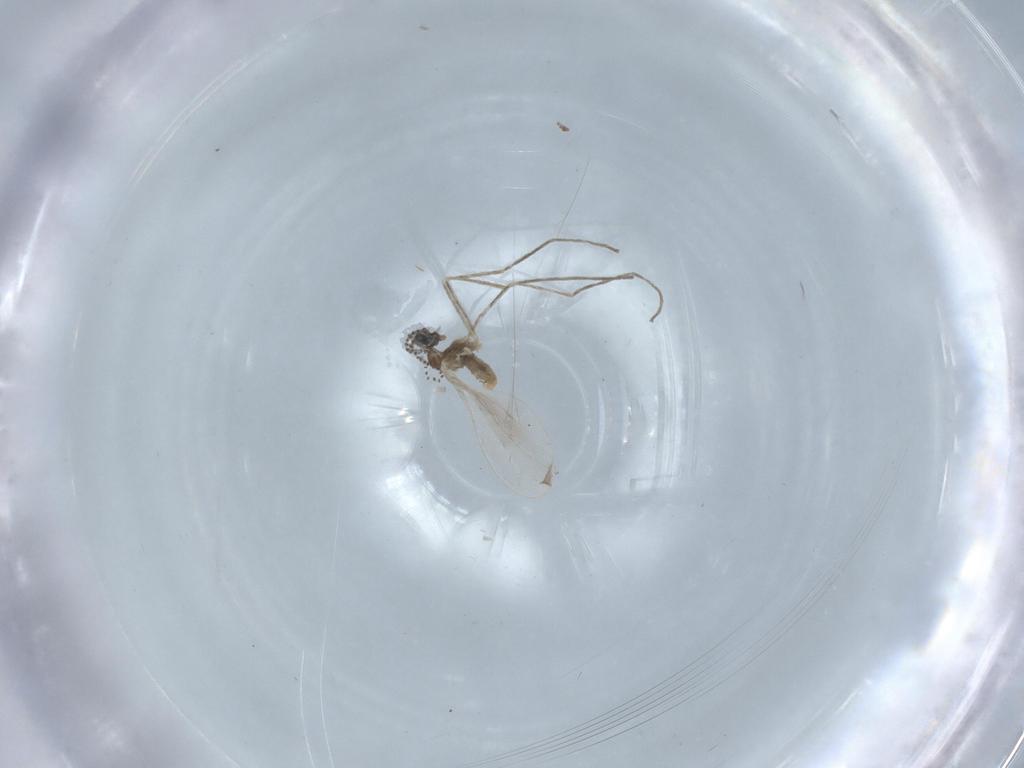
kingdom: Animalia
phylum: Arthropoda
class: Insecta
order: Diptera
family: Cecidomyiidae
